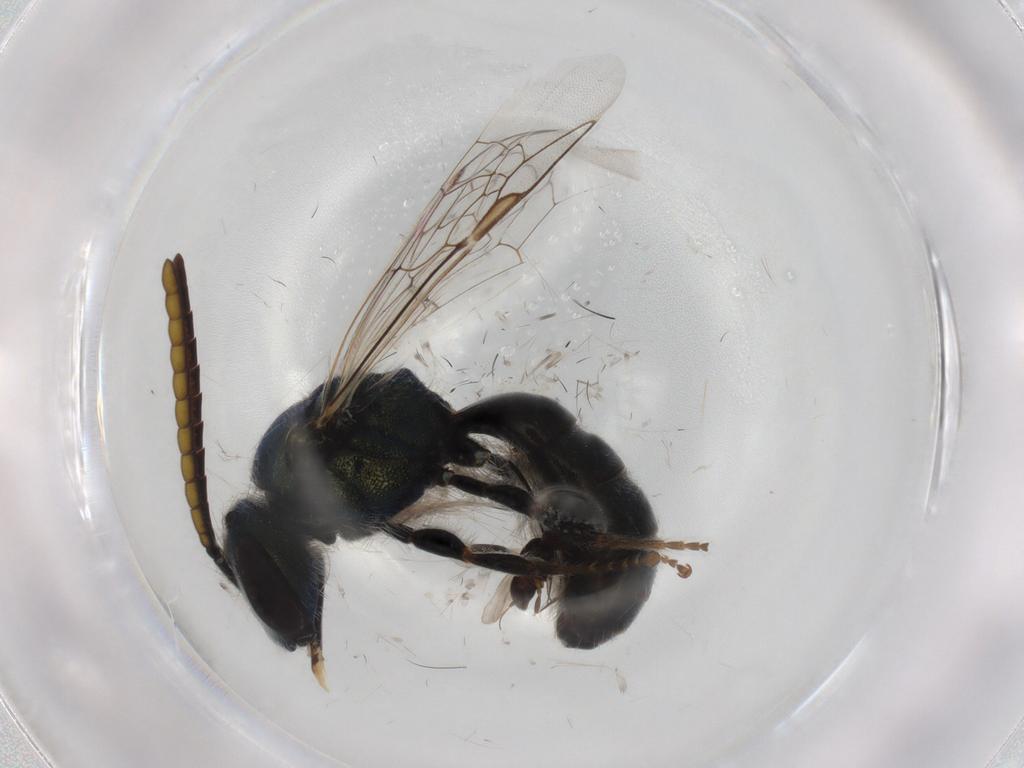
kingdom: Animalia
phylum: Arthropoda
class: Insecta
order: Hymenoptera
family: Halictidae
